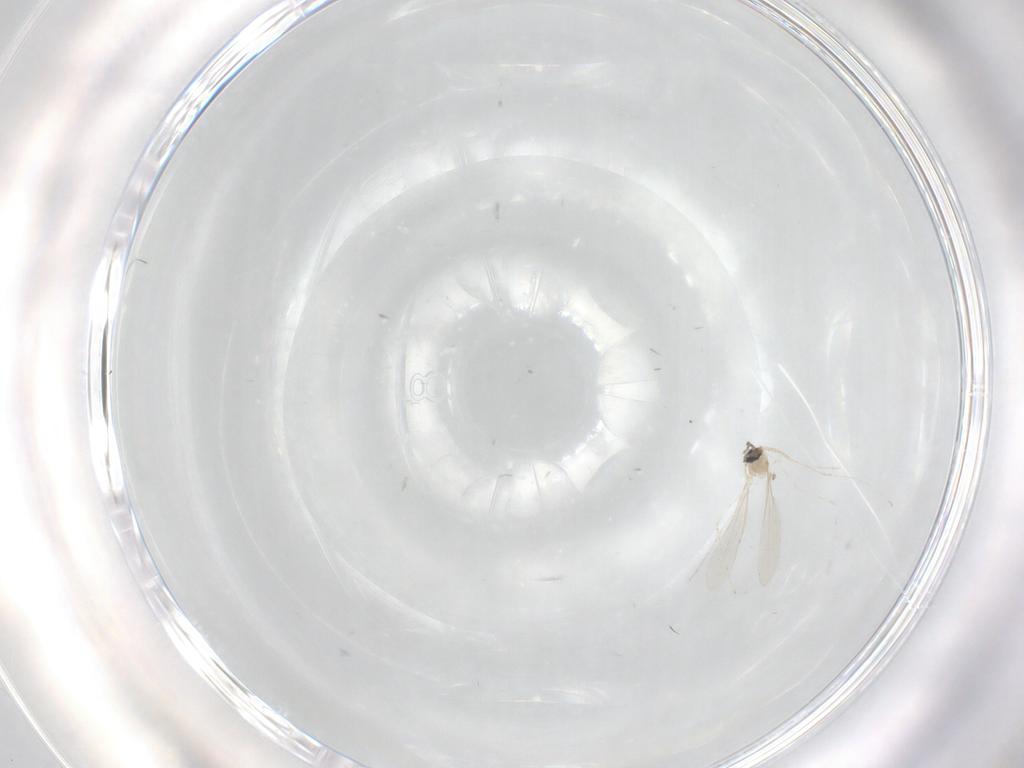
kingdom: Animalia
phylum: Arthropoda
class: Insecta
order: Diptera
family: Cecidomyiidae
